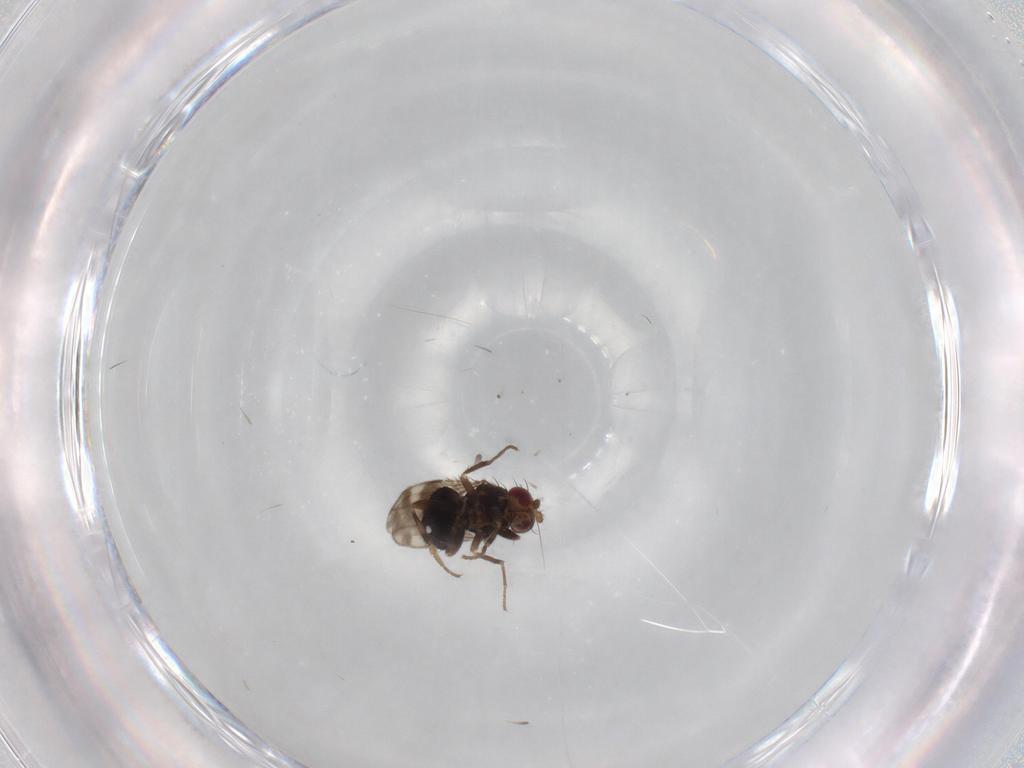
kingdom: Animalia
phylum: Arthropoda
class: Insecta
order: Diptera
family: Sphaeroceridae
